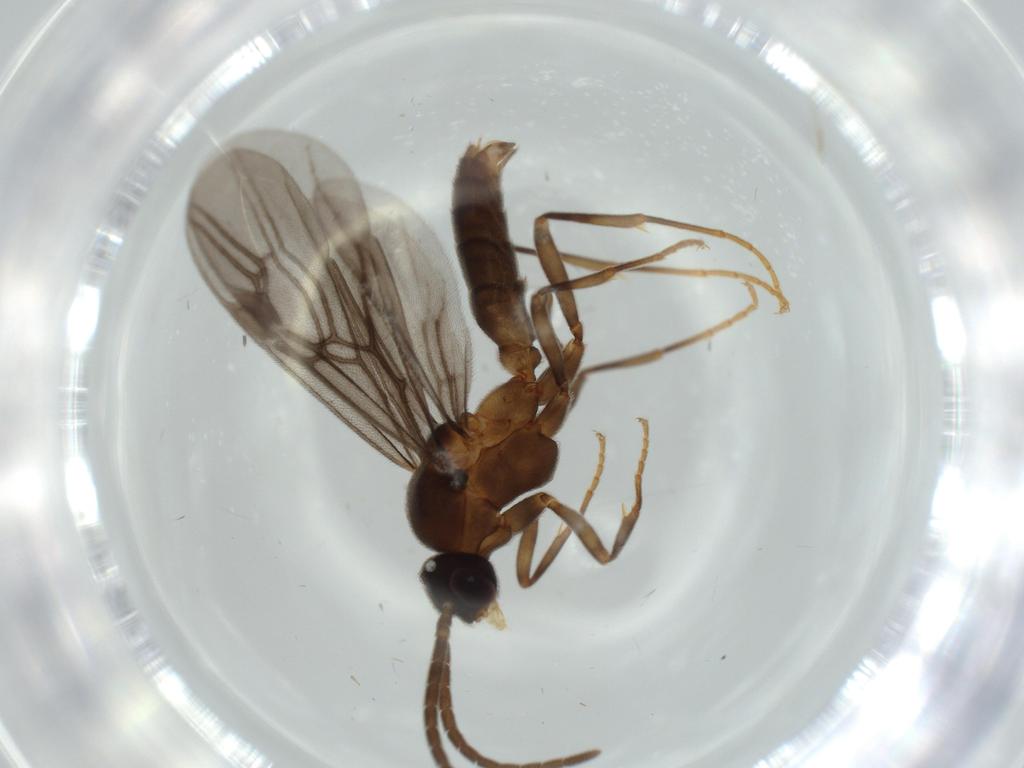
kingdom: Animalia
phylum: Arthropoda
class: Insecta
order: Hymenoptera
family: Formicidae
